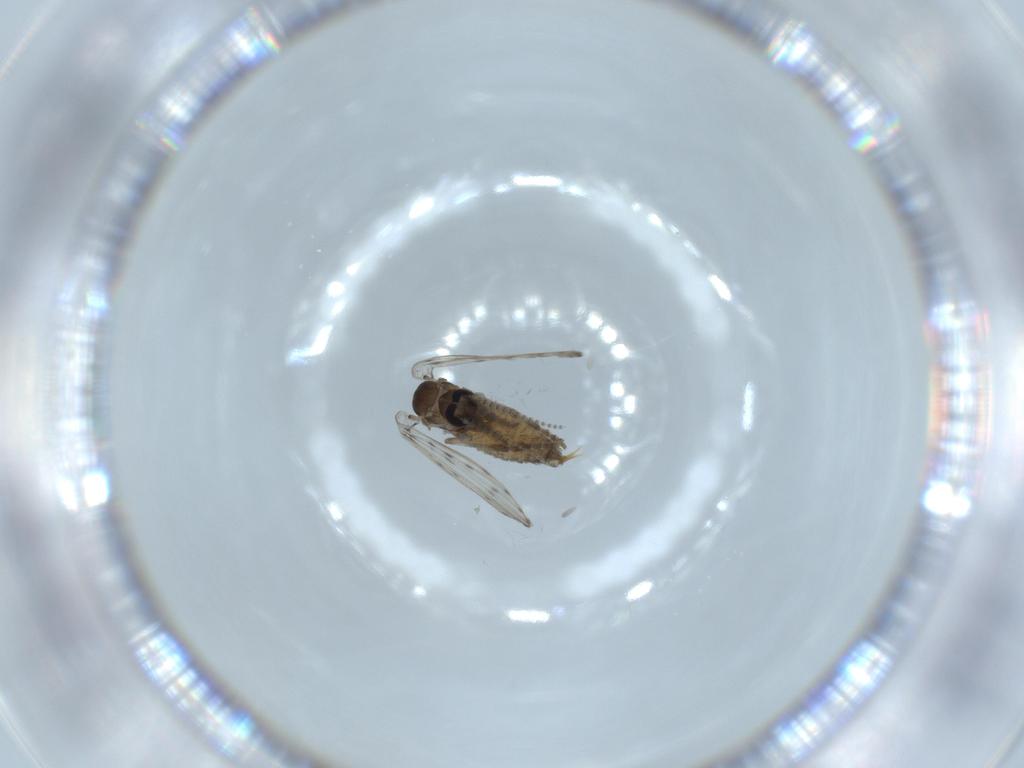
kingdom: Animalia
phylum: Arthropoda
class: Insecta
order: Diptera
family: Psychodidae
